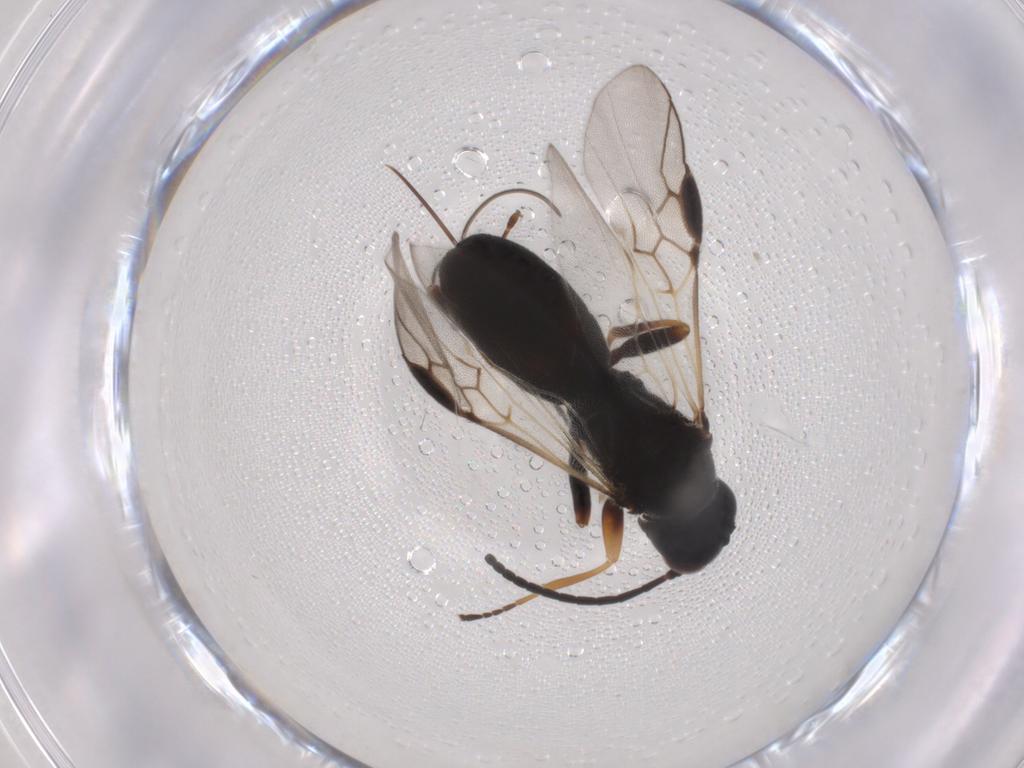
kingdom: Animalia
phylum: Arthropoda
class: Insecta
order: Hymenoptera
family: Braconidae
